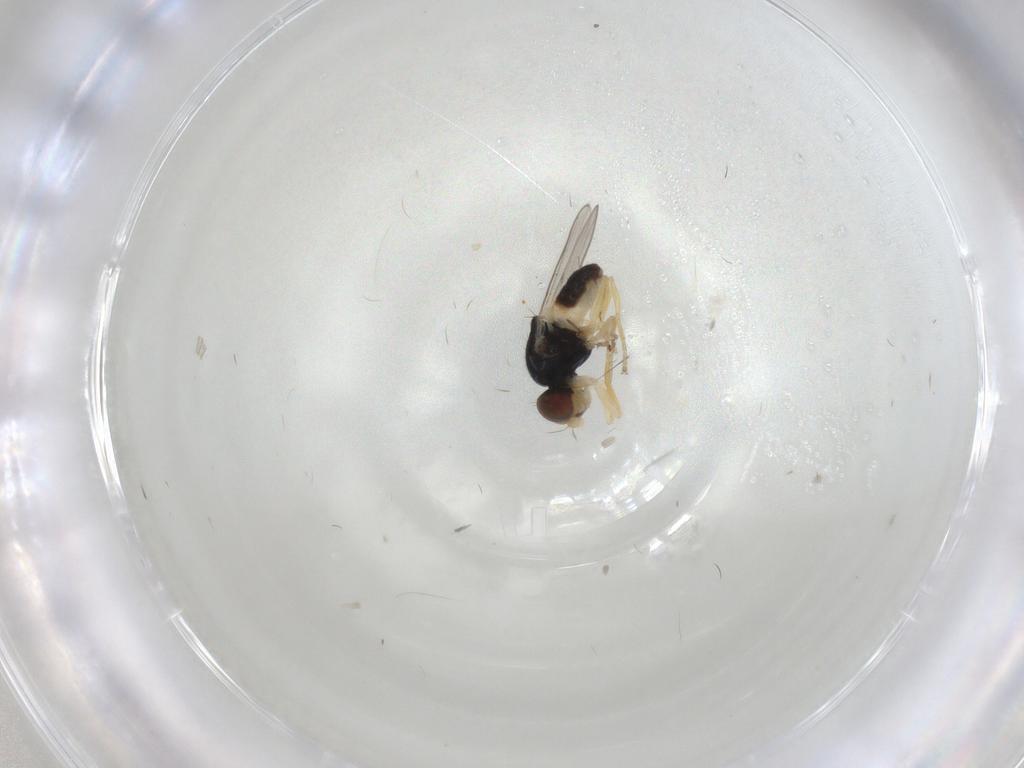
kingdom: Animalia
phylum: Arthropoda
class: Insecta
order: Diptera
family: Chloropidae
